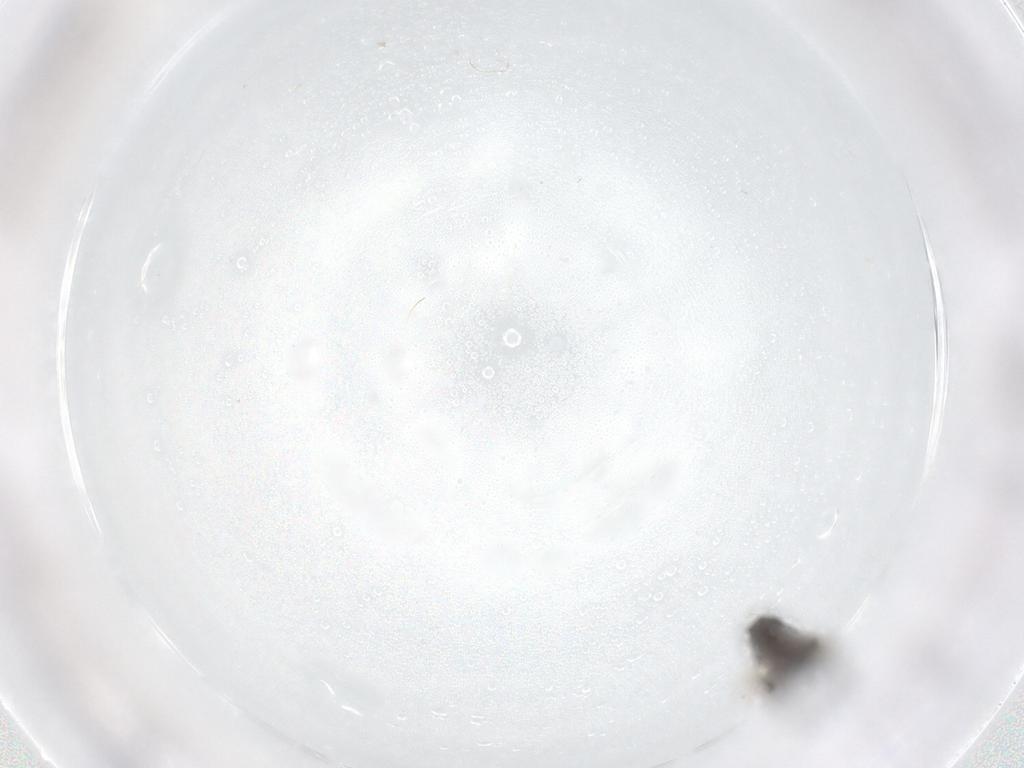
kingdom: Animalia
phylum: Arthropoda
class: Insecta
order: Diptera
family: Phoridae
